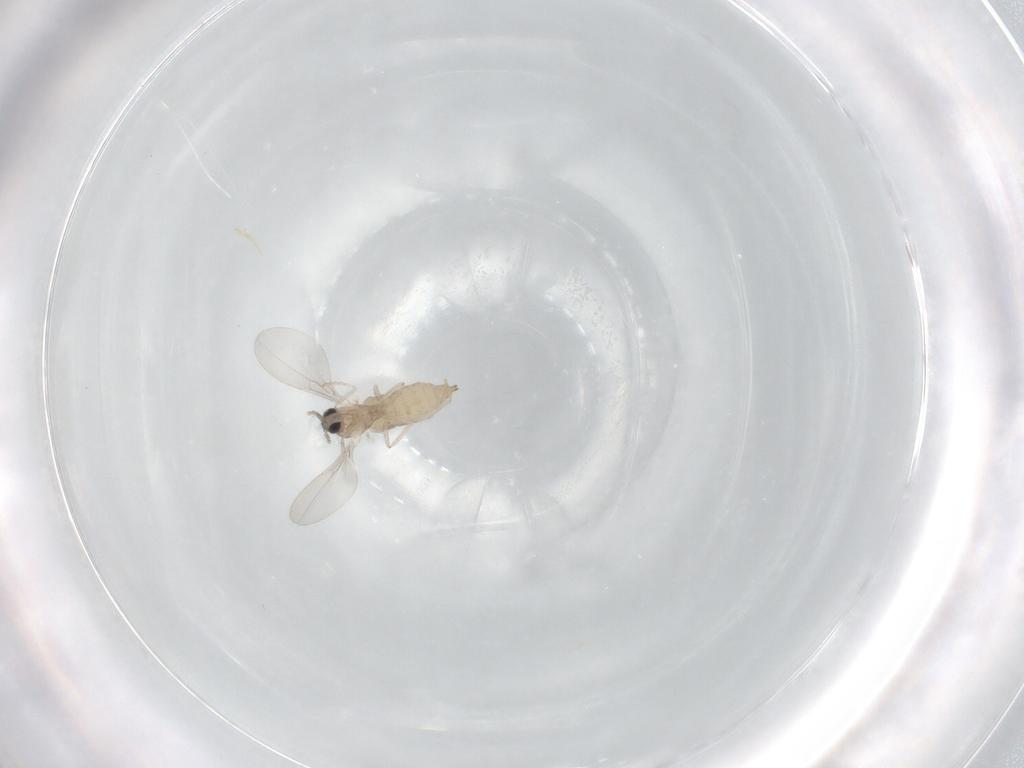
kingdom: Animalia
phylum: Arthropoda
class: Insecta
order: Diptera
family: Cecidomyiidae
